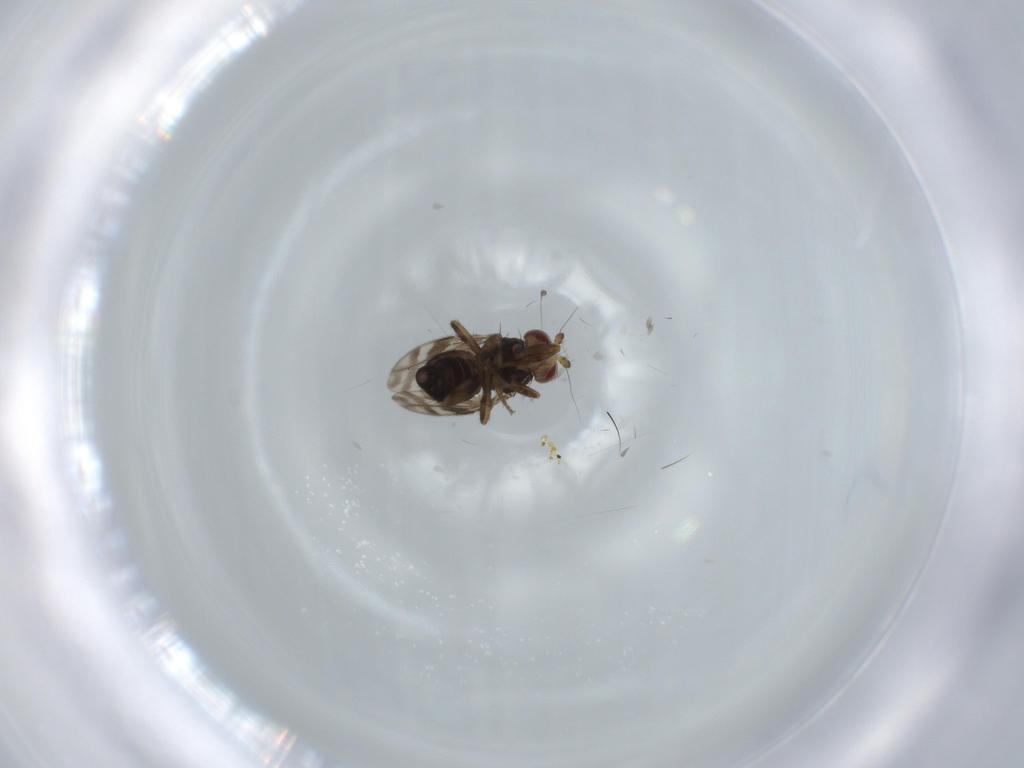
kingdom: Animalia
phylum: Arthropoda
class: Insecta
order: Diptera
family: Sphaeroceridae
